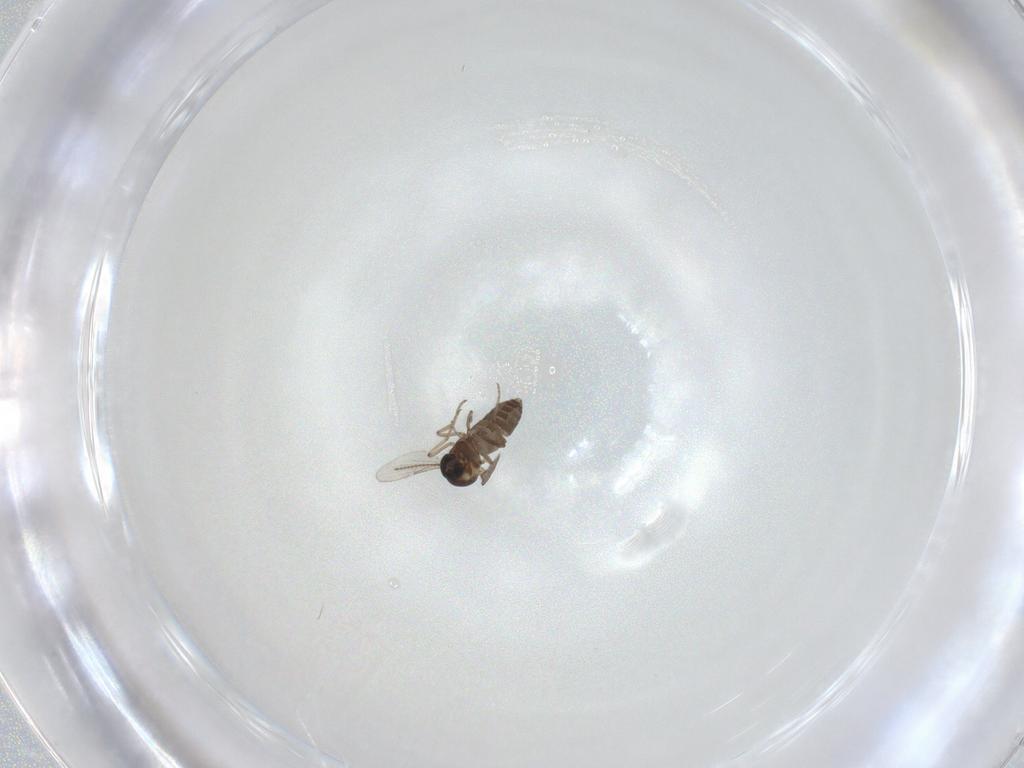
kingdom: Animalia
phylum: Arthropoda
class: Insecta
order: Diptera
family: Ceratopogonidae
